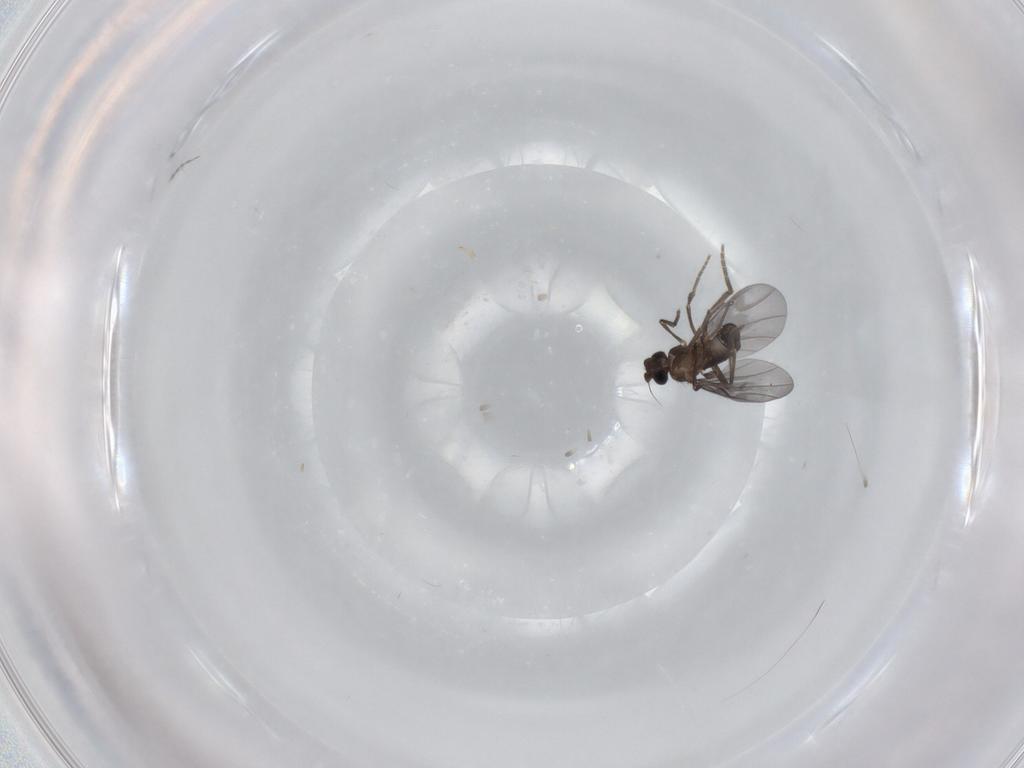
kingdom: Animalia
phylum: Arthropoda
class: Insecta
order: Diptera
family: Phoridae
